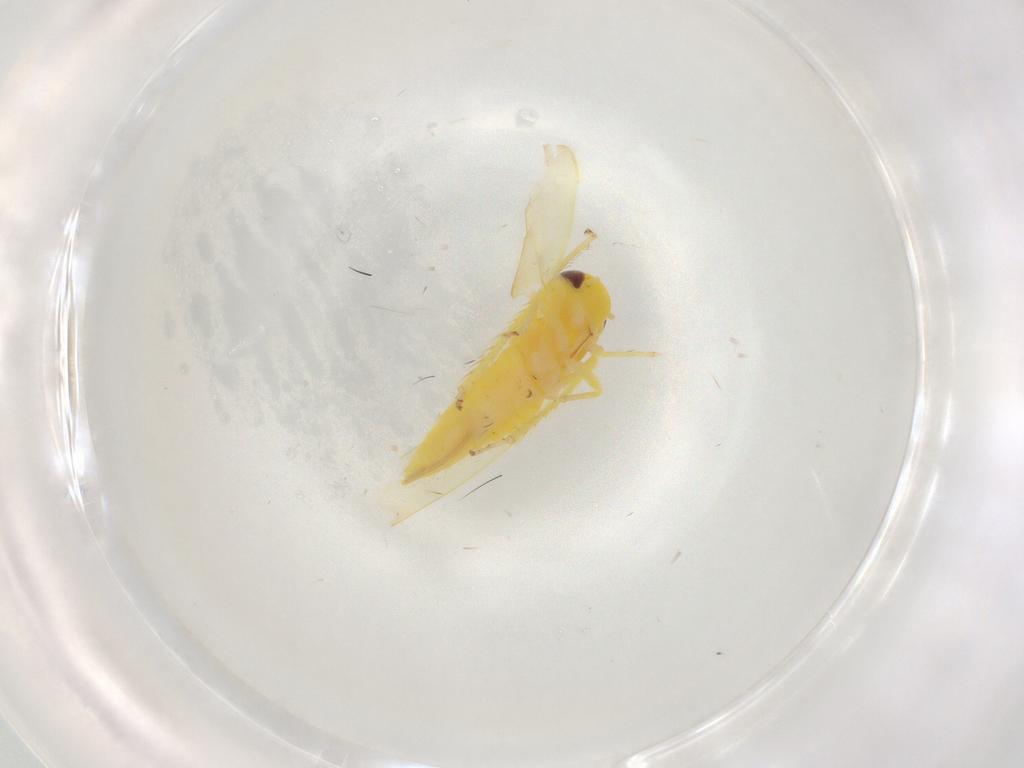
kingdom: Animalia
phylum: Arthropoda
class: Insecta
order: Hemiptera
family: Cicadellidae
